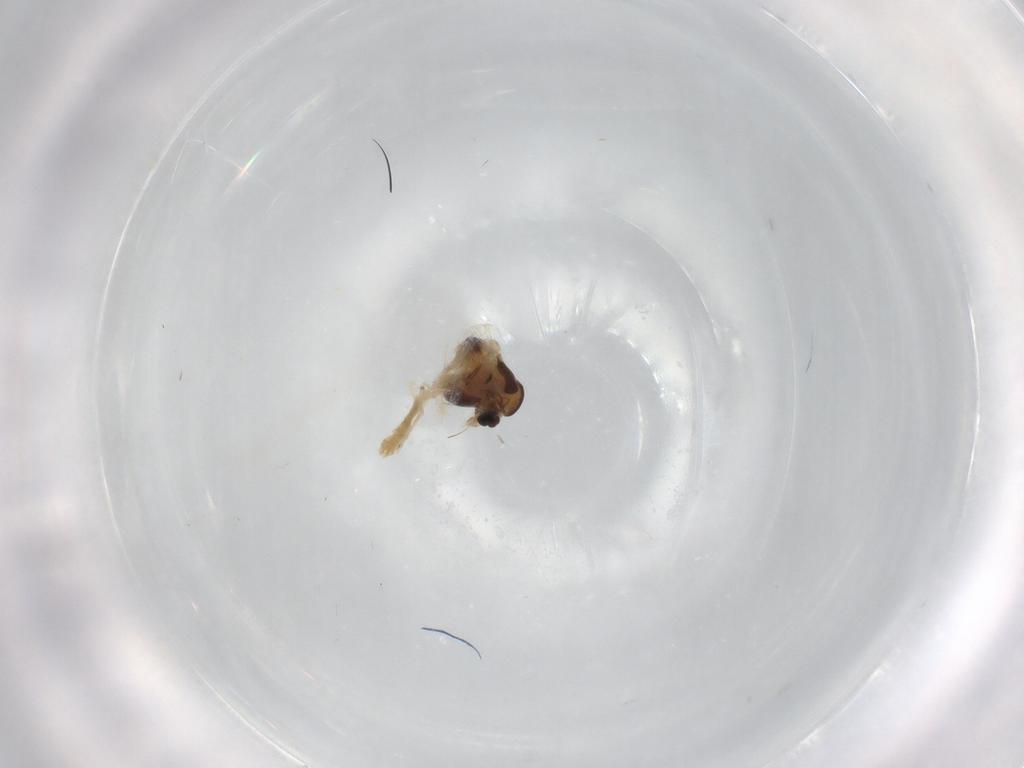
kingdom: Animalia
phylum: Arthropoda
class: Insecta
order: Diptera
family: Chironomidae
